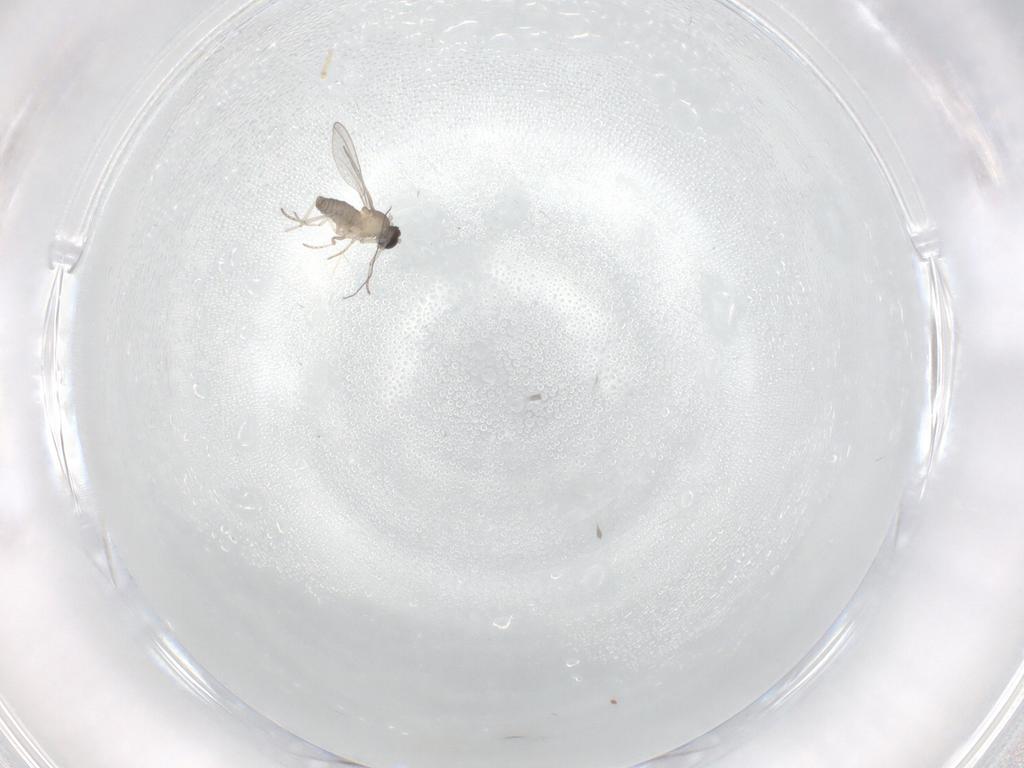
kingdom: Animalia
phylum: Arthropoda
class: Insecta
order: Diptera
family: Cecidomyiidae
